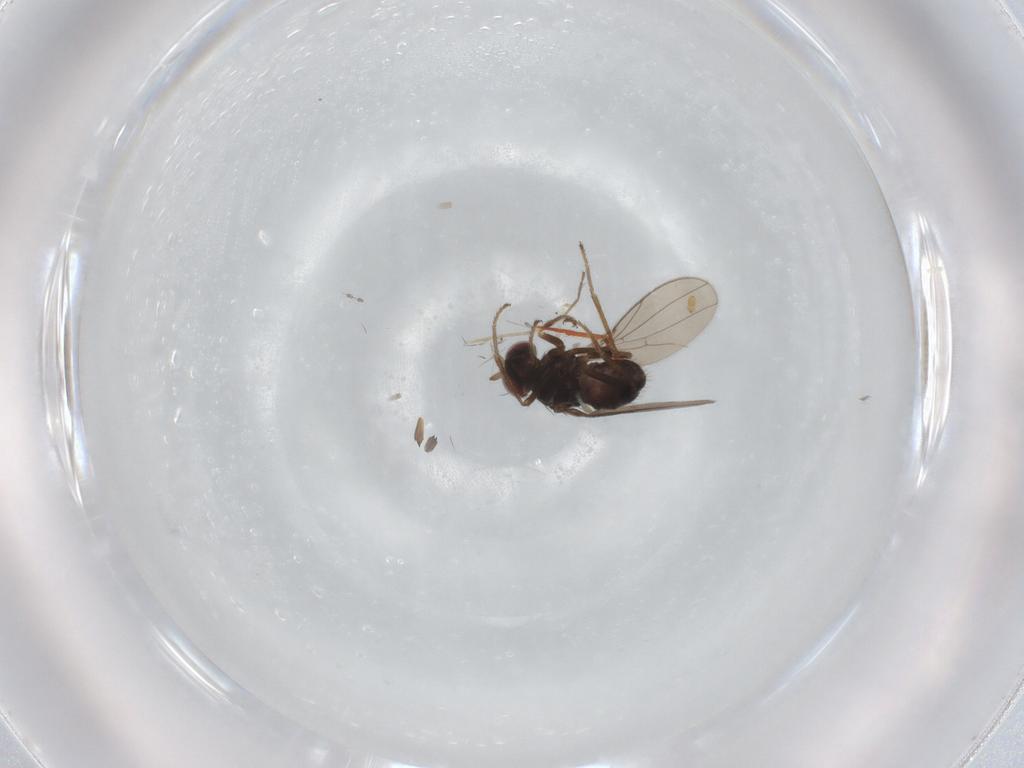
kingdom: Animalia
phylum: Arthropoda
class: Insecta
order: Diptera
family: Ephydridae
